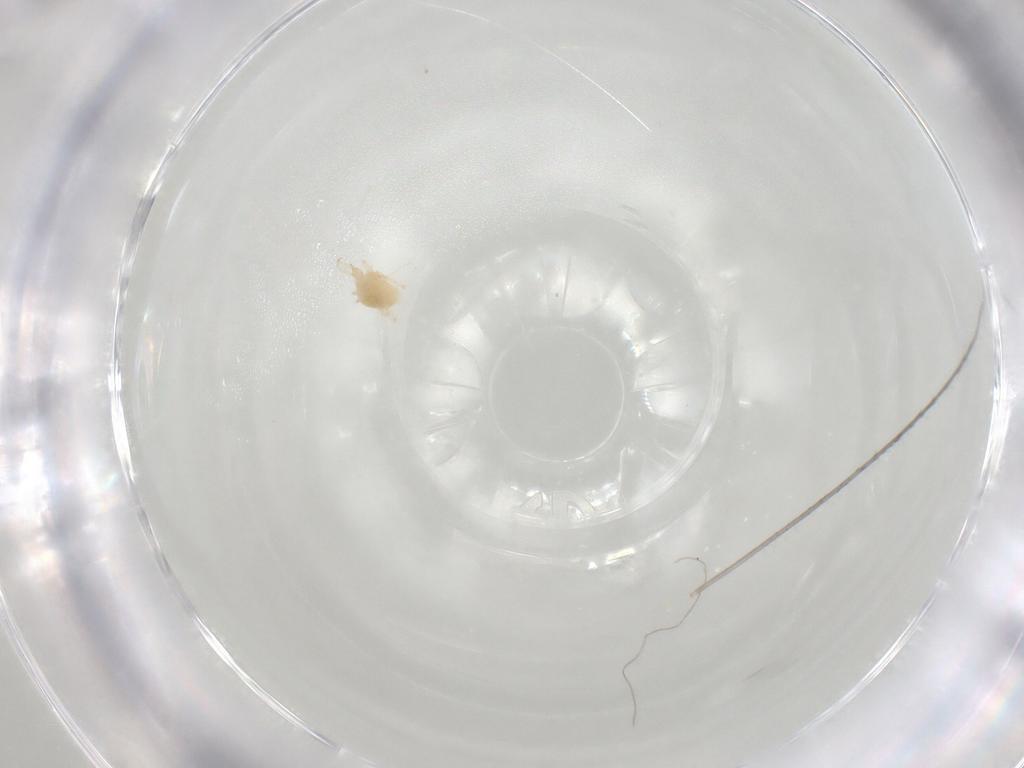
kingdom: Animalia
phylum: Arthropoda
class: Arachnida
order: Trombidiformes
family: Cunaxidae
